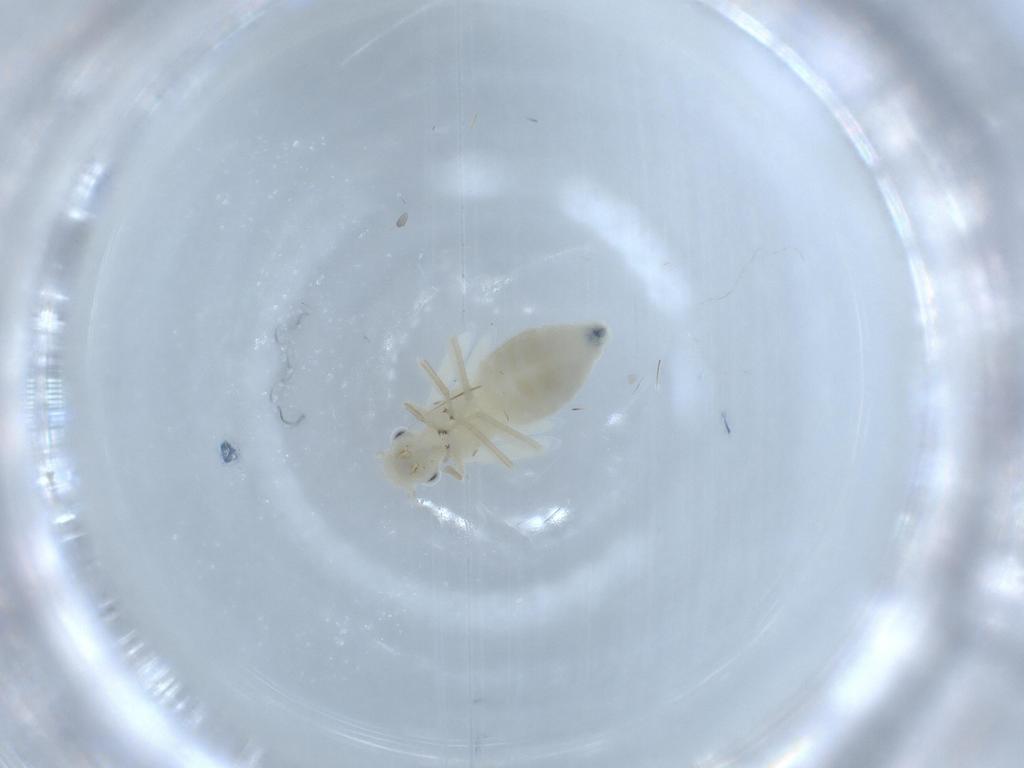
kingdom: Animalia
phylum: Arthropoda
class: Insecta
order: Psocodea
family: Caeciliusidae
